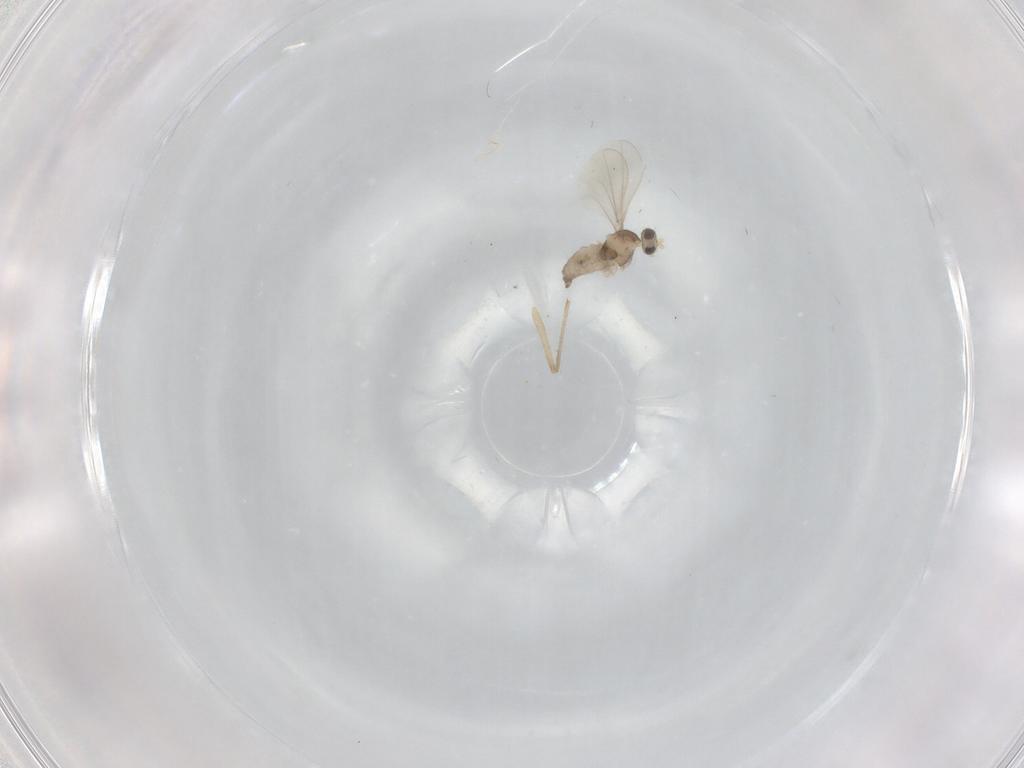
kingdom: Animalia
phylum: Arthropoda
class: Insecta
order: Diptera
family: Chironomidae
